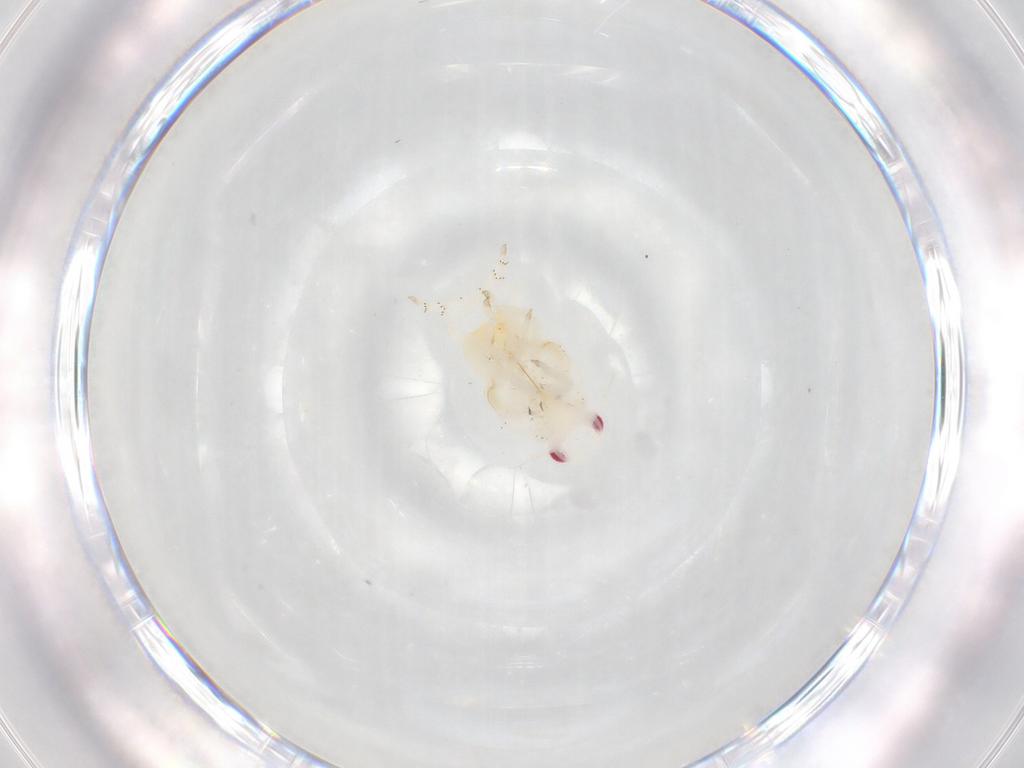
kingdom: Animalia
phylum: Arthropoda
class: Insecta
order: Hemiptera
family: Flatidae
